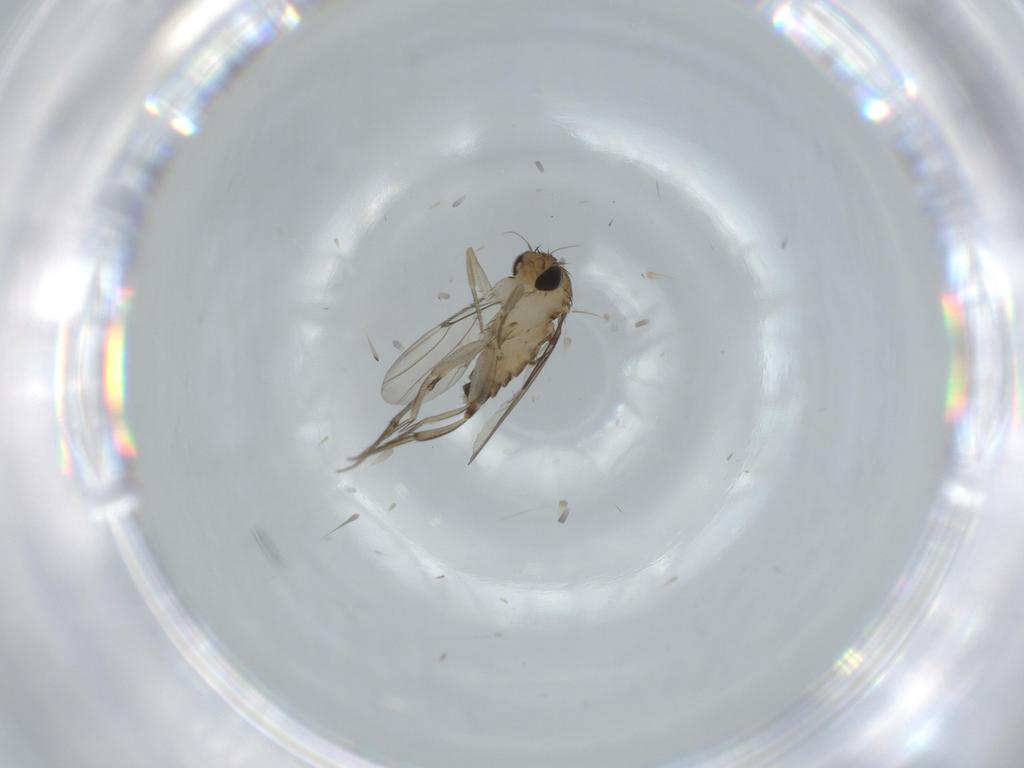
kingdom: Animalia
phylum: Arthropoda
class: Insecta
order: Diptera
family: Phoridae
